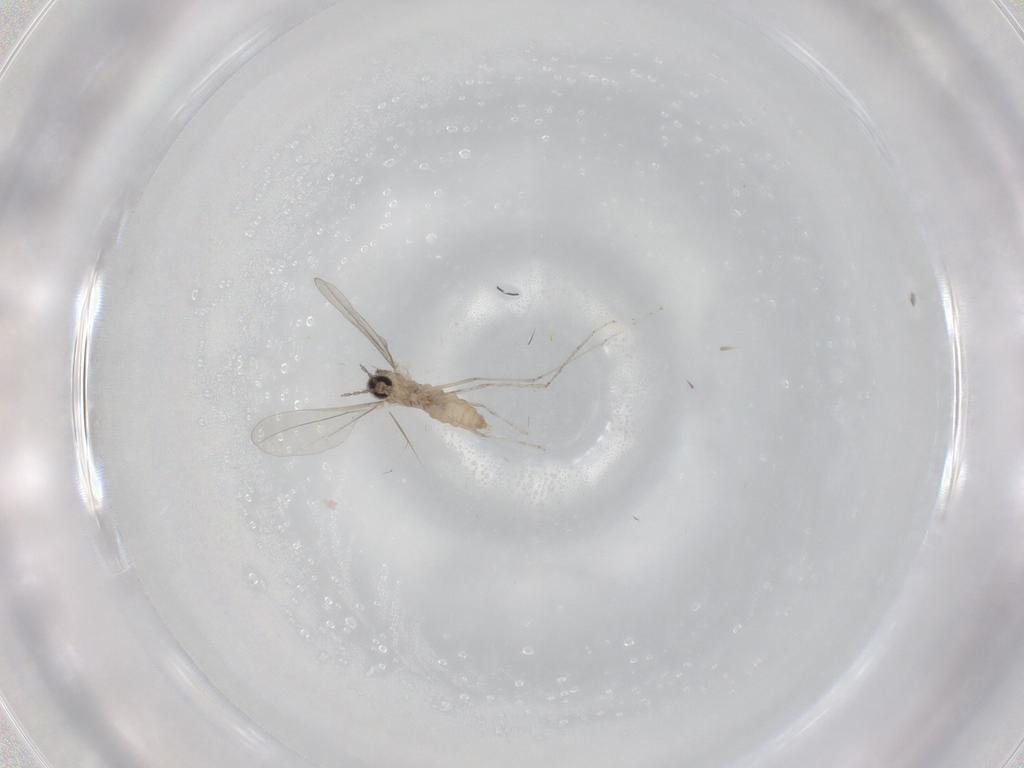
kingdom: Animalia
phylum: Arthropoda
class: Insecta
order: Diptera
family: Cecidomyiidae
